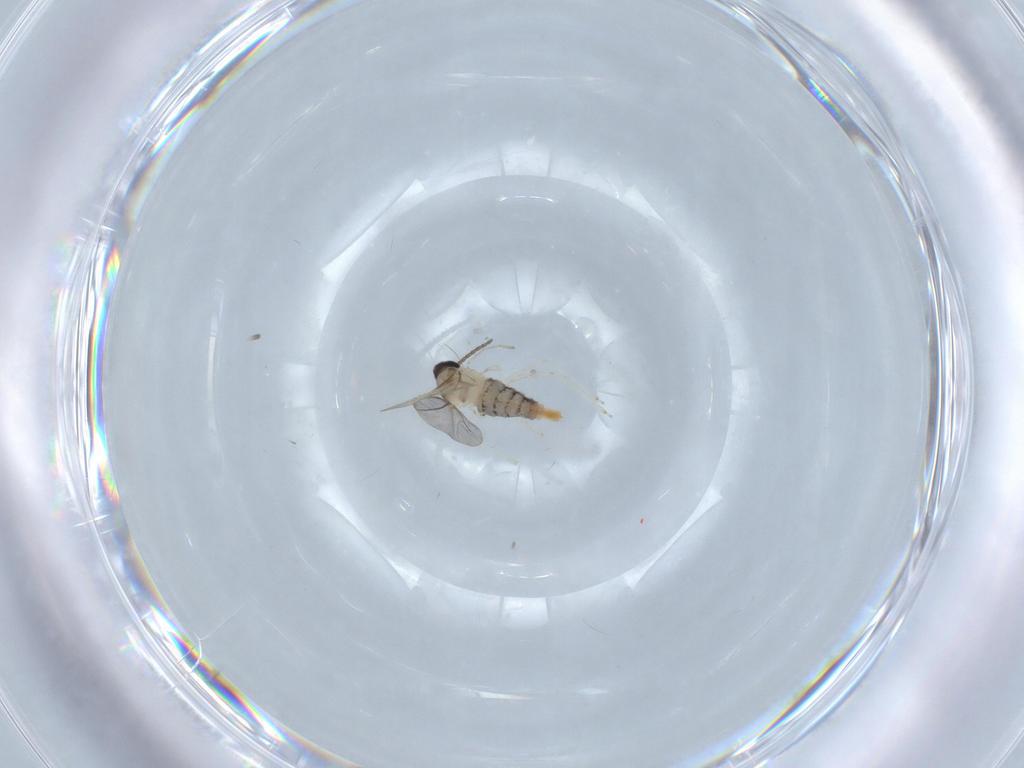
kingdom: Animalia
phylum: Arthropoda
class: Insecta
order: Diptera
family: Cecidomyiidae
